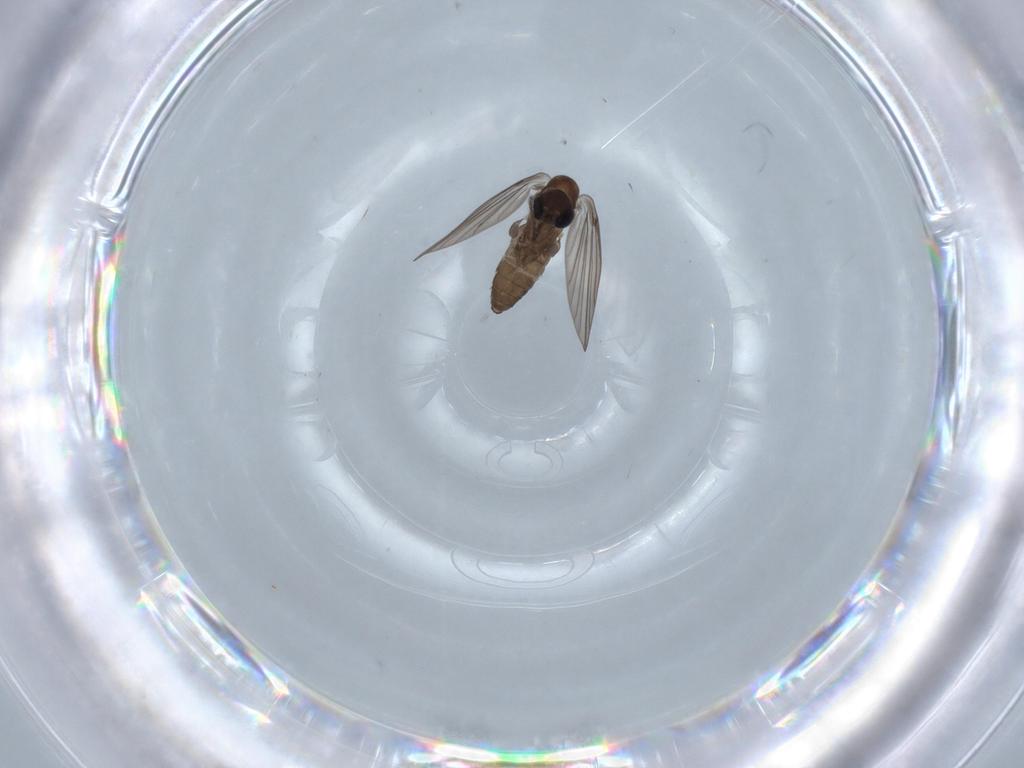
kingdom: Animalia
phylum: Arthropoda
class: Insecta
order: Diptera
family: Psychodidae
